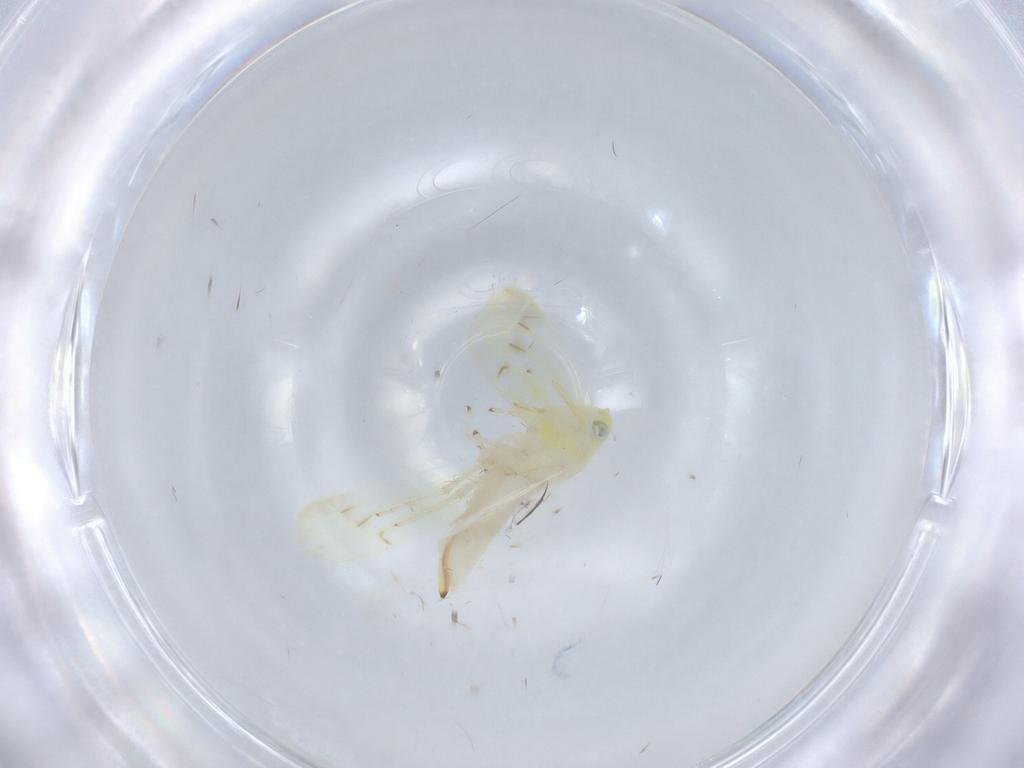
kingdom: Animalia
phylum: Arthropoda
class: Insecta
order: Hemiptera
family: Cicadellidae
